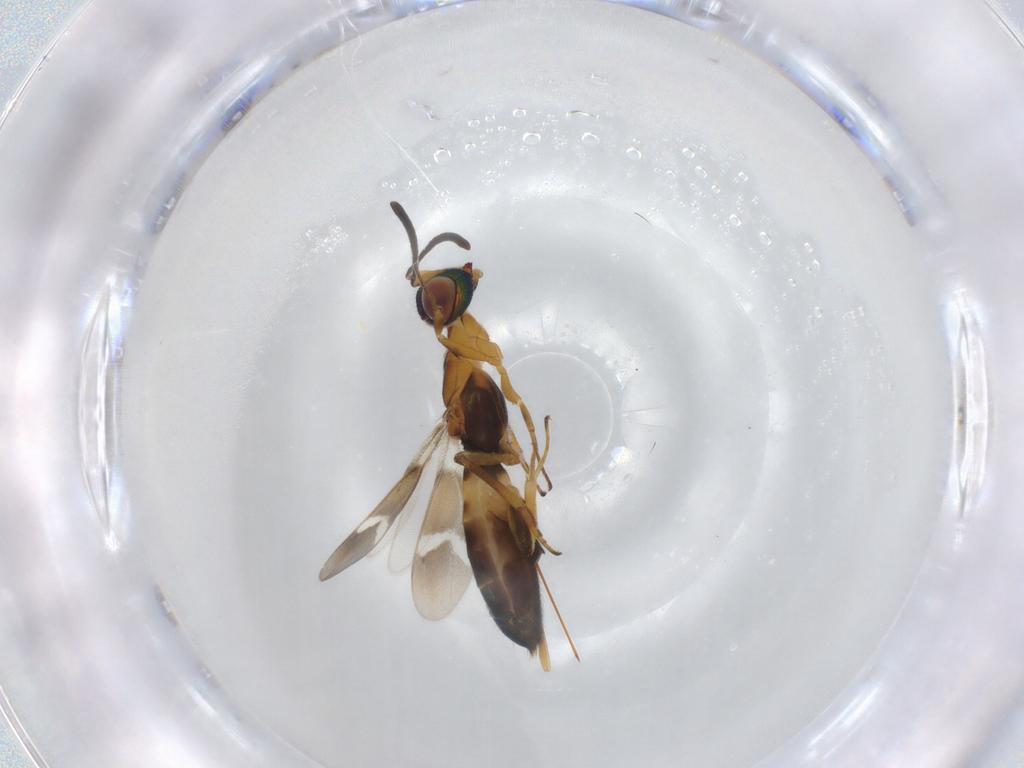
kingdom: Animalia
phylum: Arthropoda
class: Insecta
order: Hymenoptera
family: Eupelmidae
